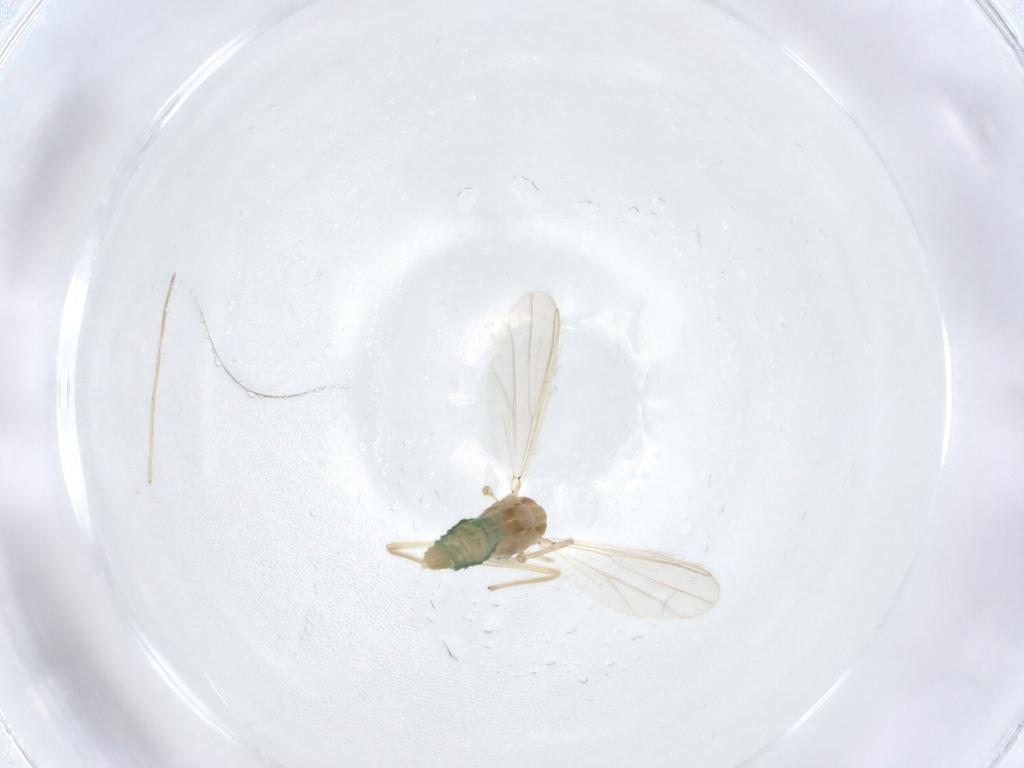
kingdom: Animalia
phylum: Arthropoda
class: Insecta
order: Diptera
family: Chironomidae
